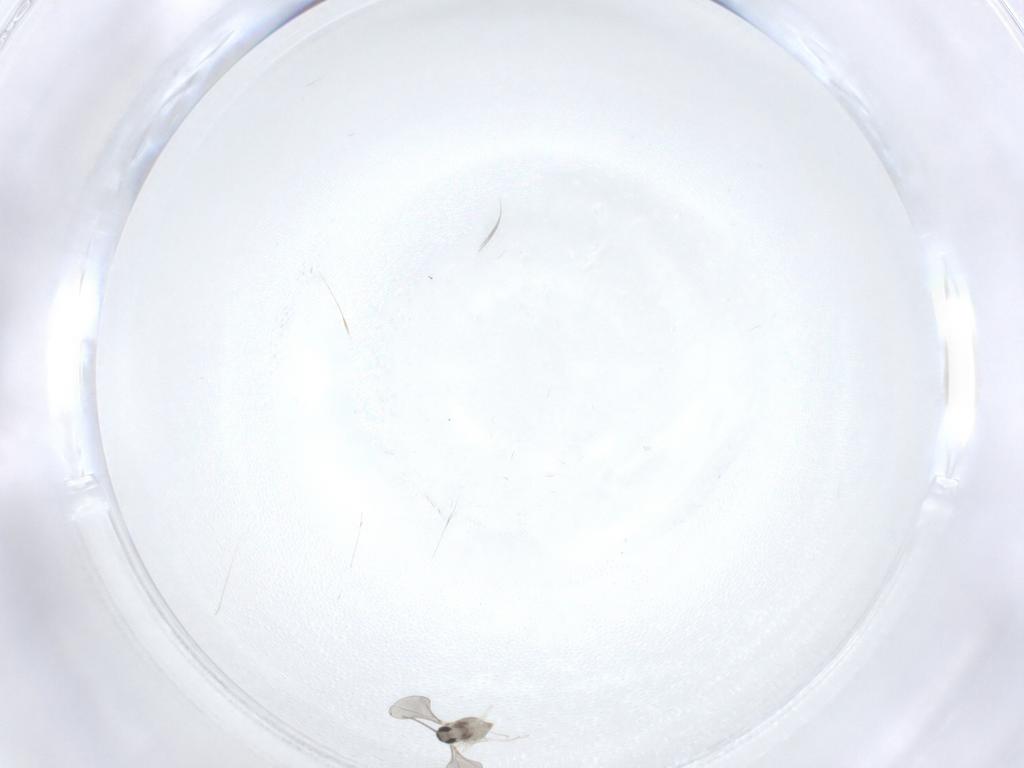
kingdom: Animalia
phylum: Arthropoda
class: Insecta
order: Diptera
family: Cecidomyiidae
